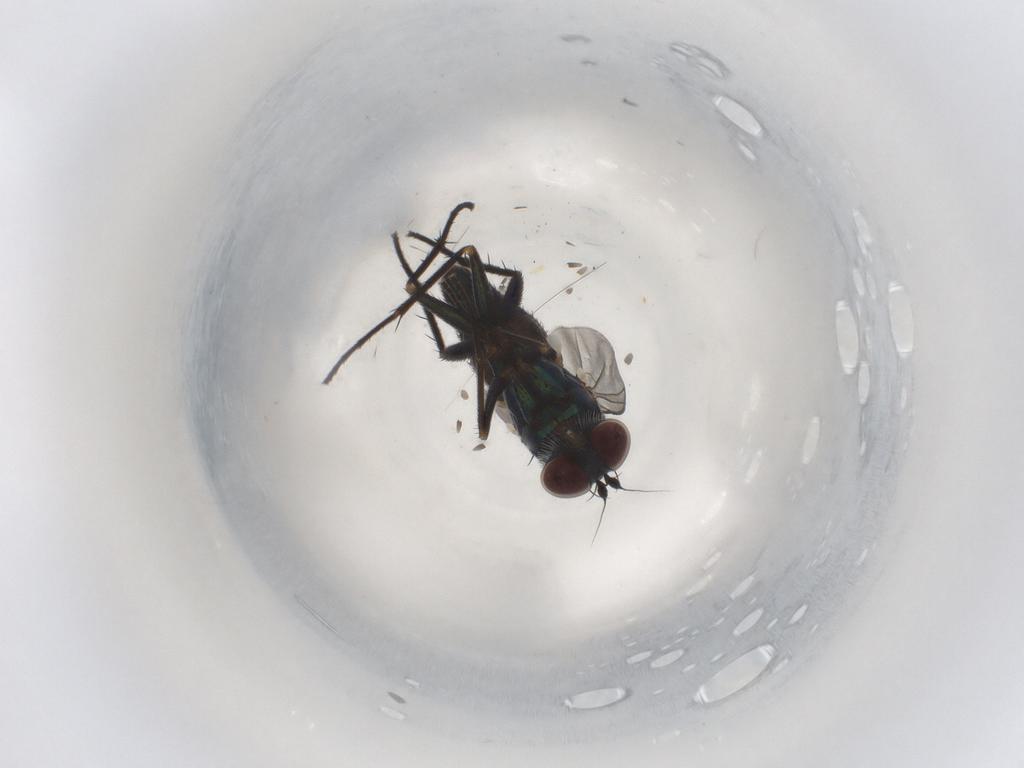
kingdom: Animalia
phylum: Arthropoda
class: Insecta
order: Diptera
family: Dolichopodidae
